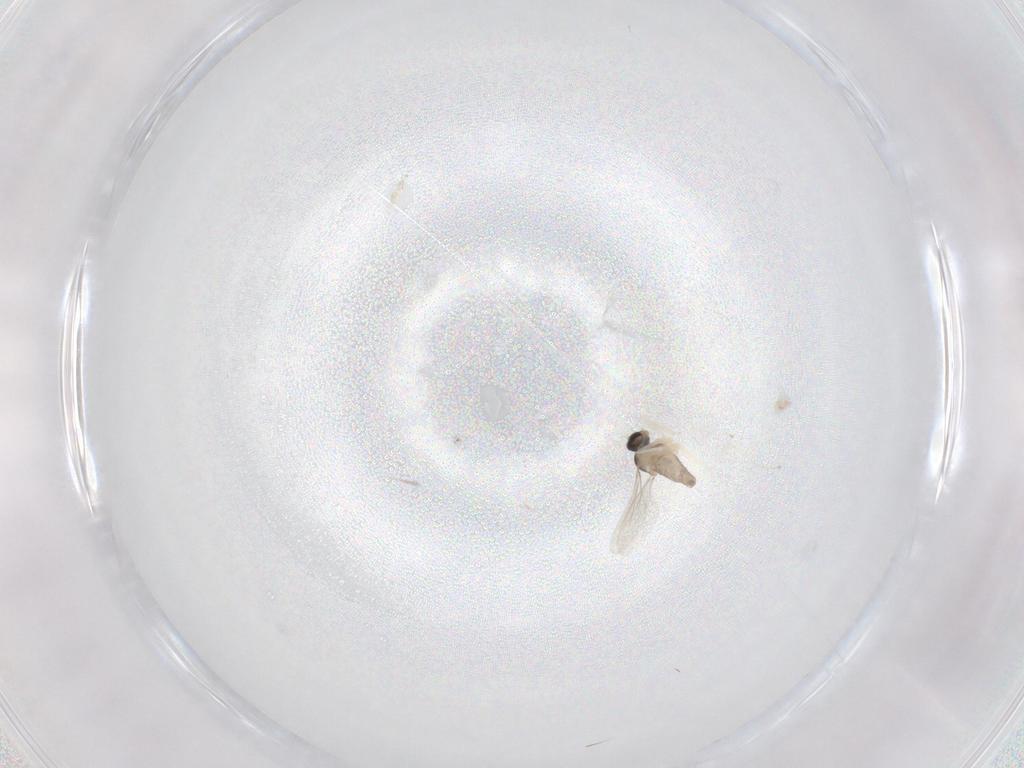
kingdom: Animalia
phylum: Arthropoda
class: Insecta
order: Diptera
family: Cecidomyiidae
